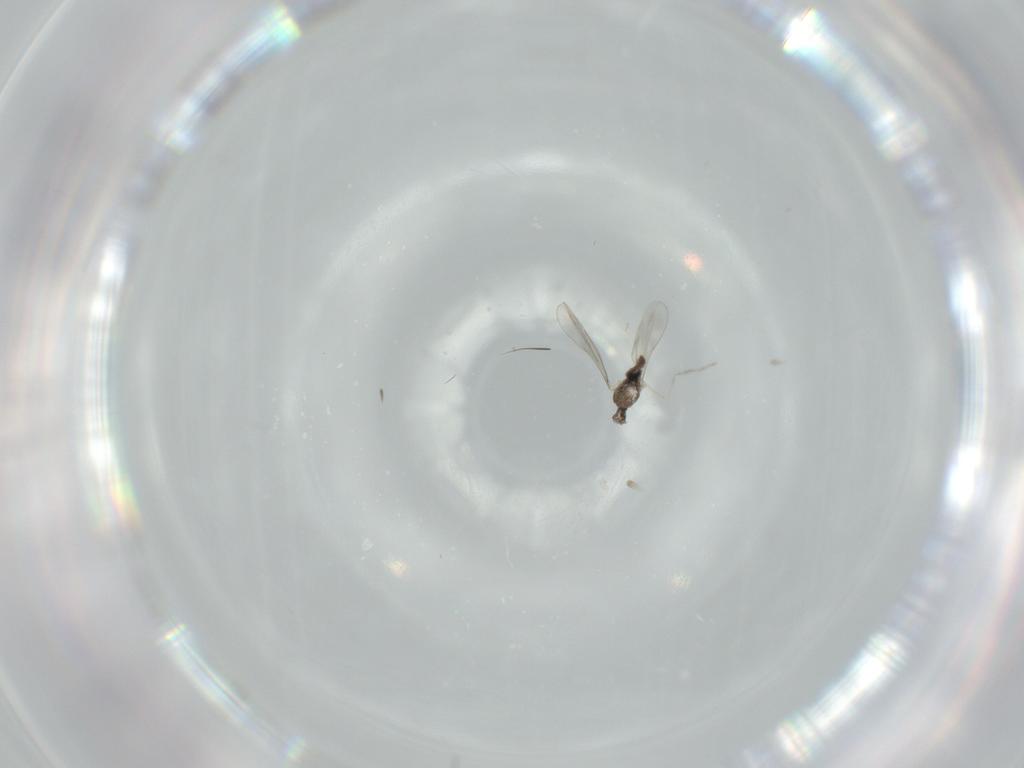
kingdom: Animalia
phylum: Arthropoda
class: Insecta
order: Diptera
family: Cecidomyiidae
